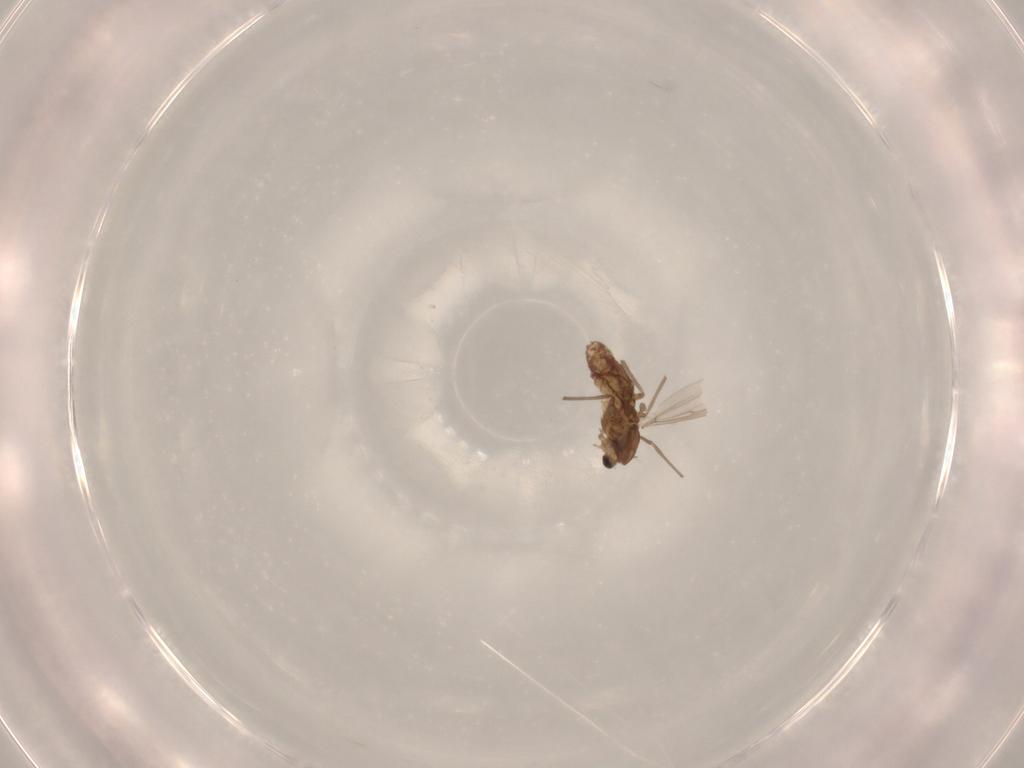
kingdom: Animalia
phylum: Arthropoda
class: Insecta
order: Diptera
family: Chironomidae
